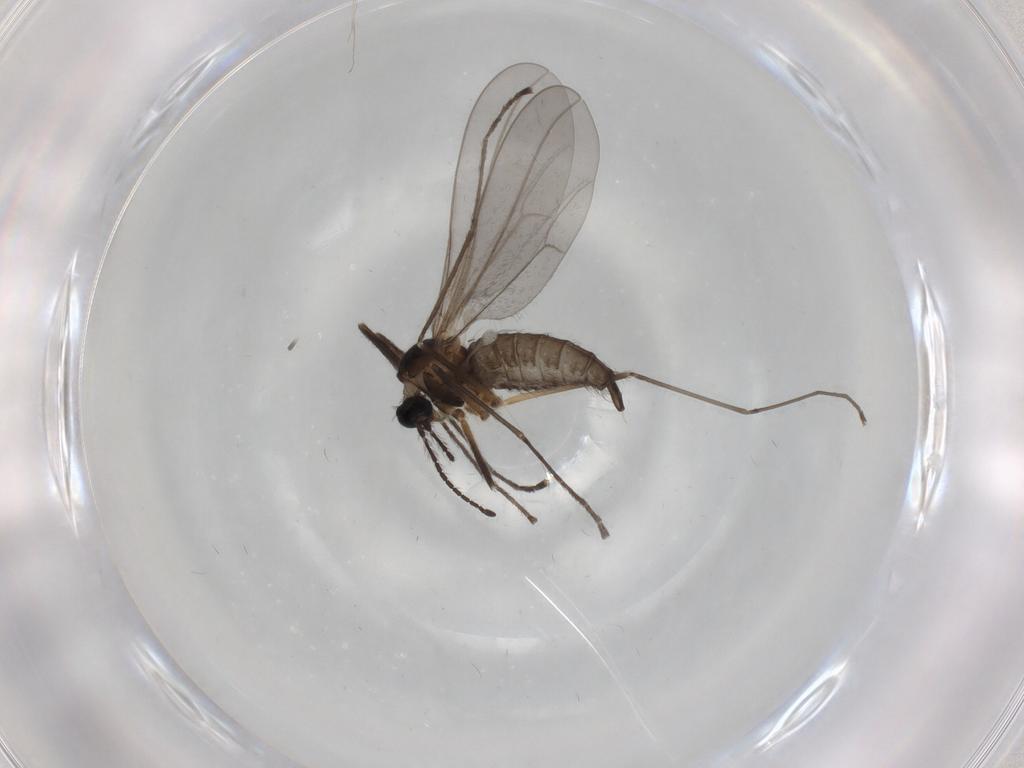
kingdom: Animalia
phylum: Arthropoda
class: Insecta
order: Diptera
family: Cecidomyiidae
